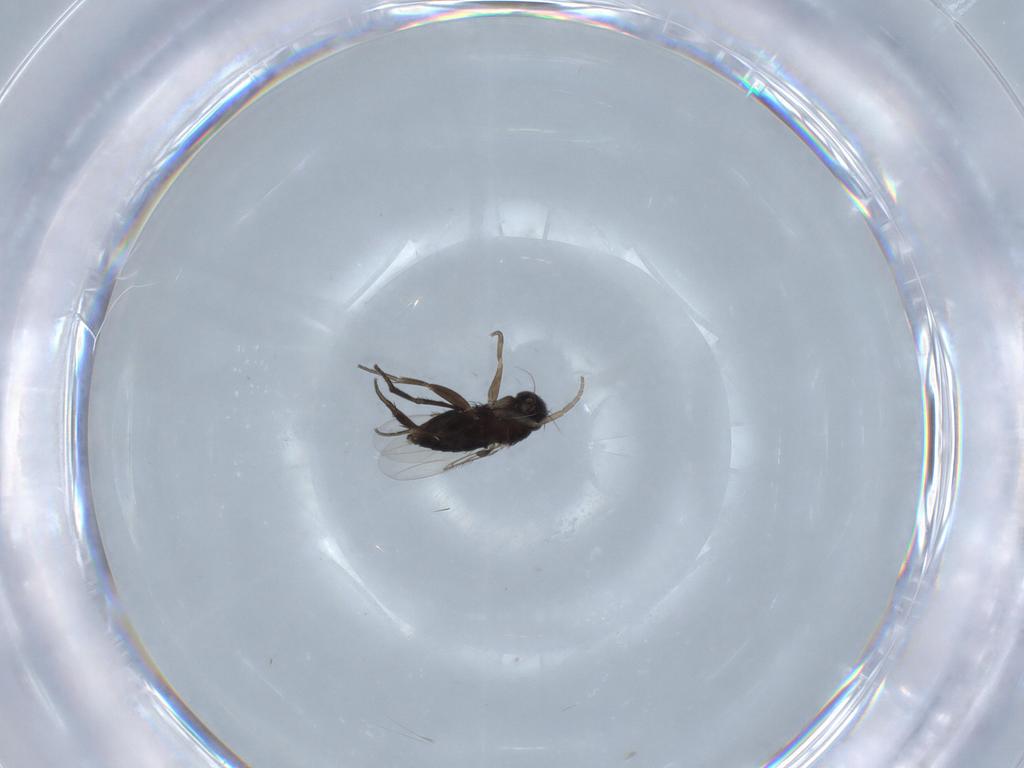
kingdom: Animalia
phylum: Arthropoda
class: Insecta
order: Diptera
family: Phoridae
